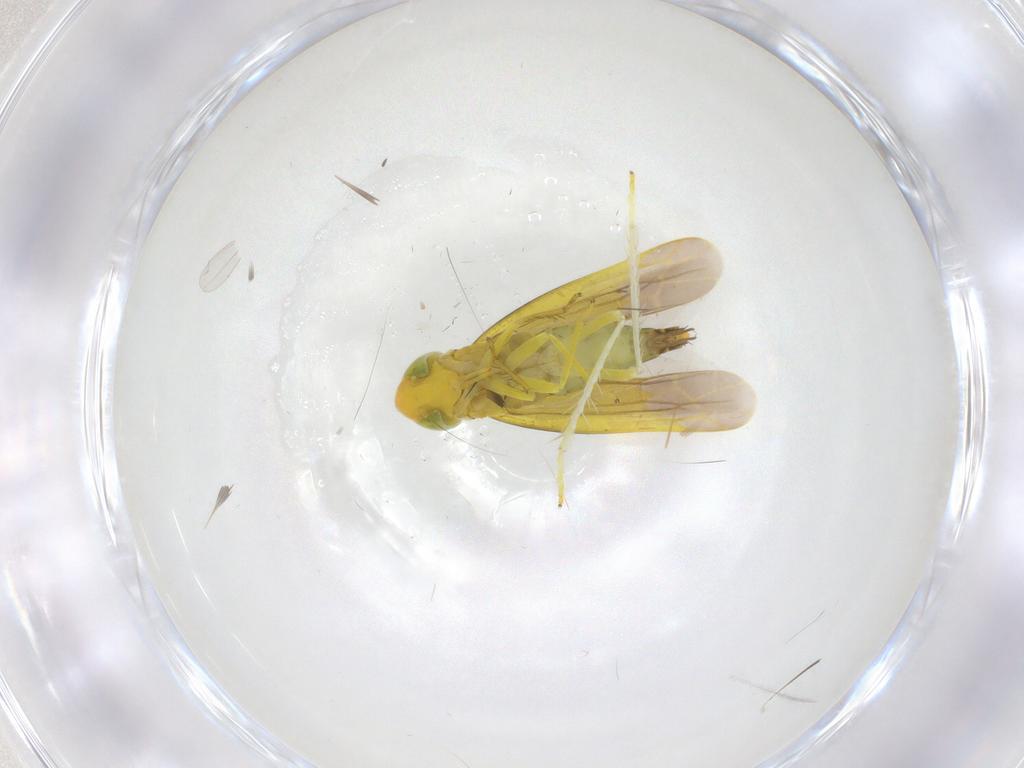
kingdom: Animalia
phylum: Arthropoda
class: Insecta
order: Hemiptera
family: Cicadellidae
